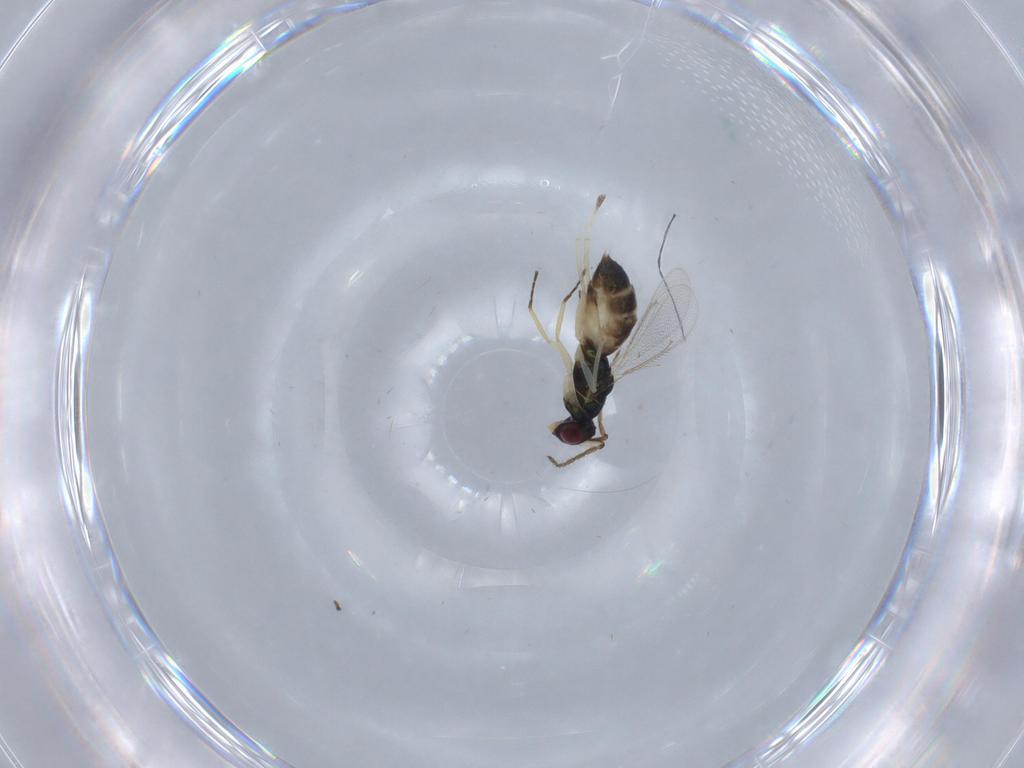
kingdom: Animalia
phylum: Arthropoda
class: Insecta
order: Hymenoptera
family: Eulophidae
